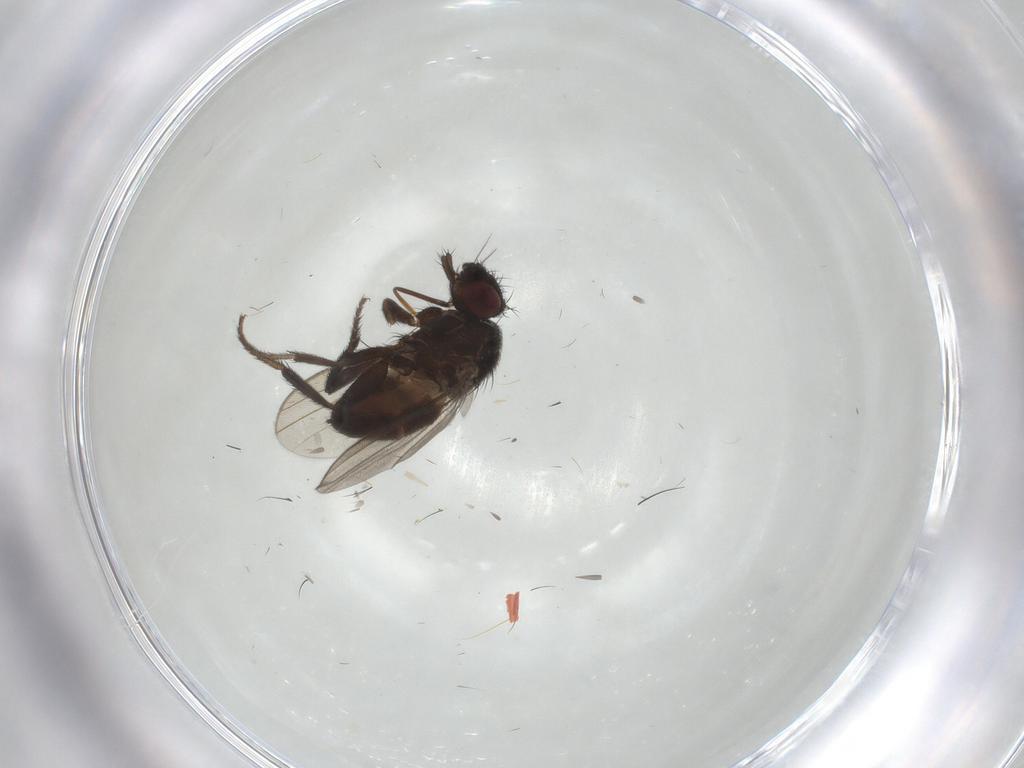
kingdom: Animalia
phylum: Arthropoda
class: Insecta
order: Diptera
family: Milichiidae
